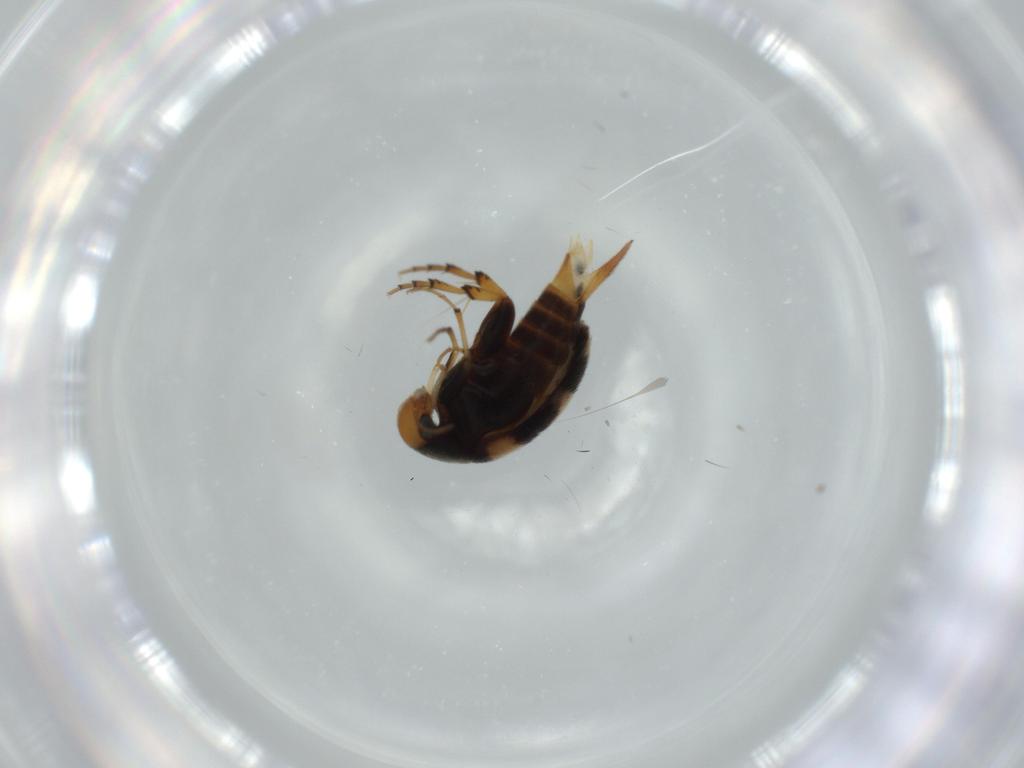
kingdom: Animalia
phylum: Arthropoda
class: Insecta
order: Coleoptera
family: Mordellidae
